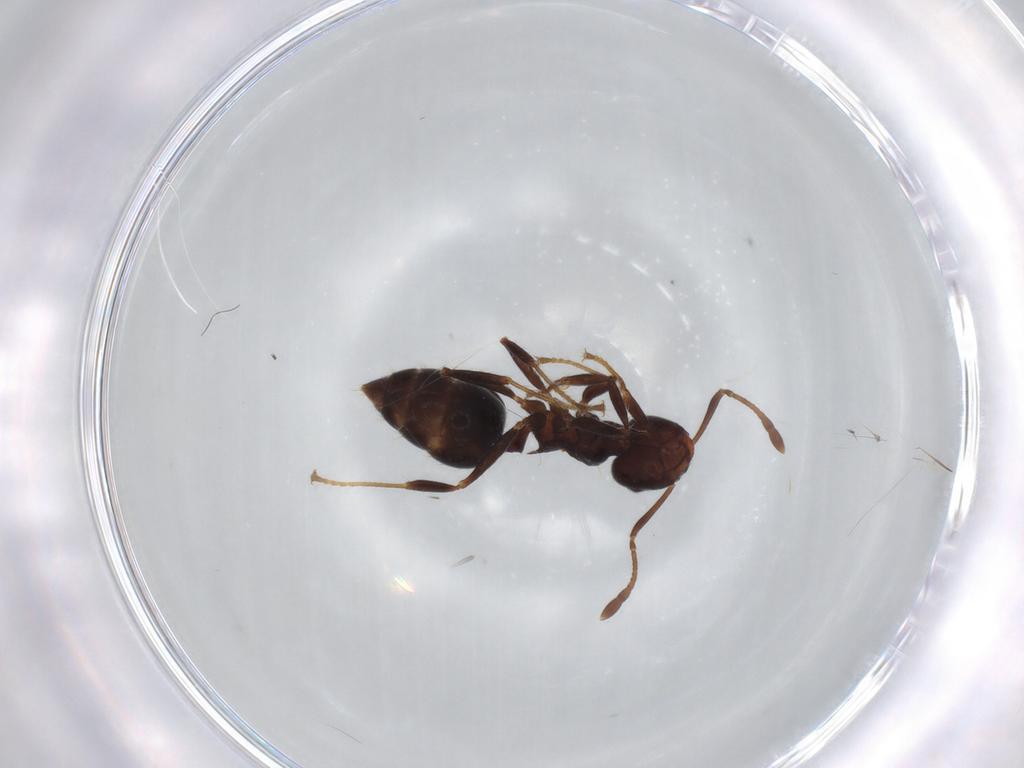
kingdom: Animalia
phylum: Arthropoda
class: Insecta
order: Hymenoptera
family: Formicidae
